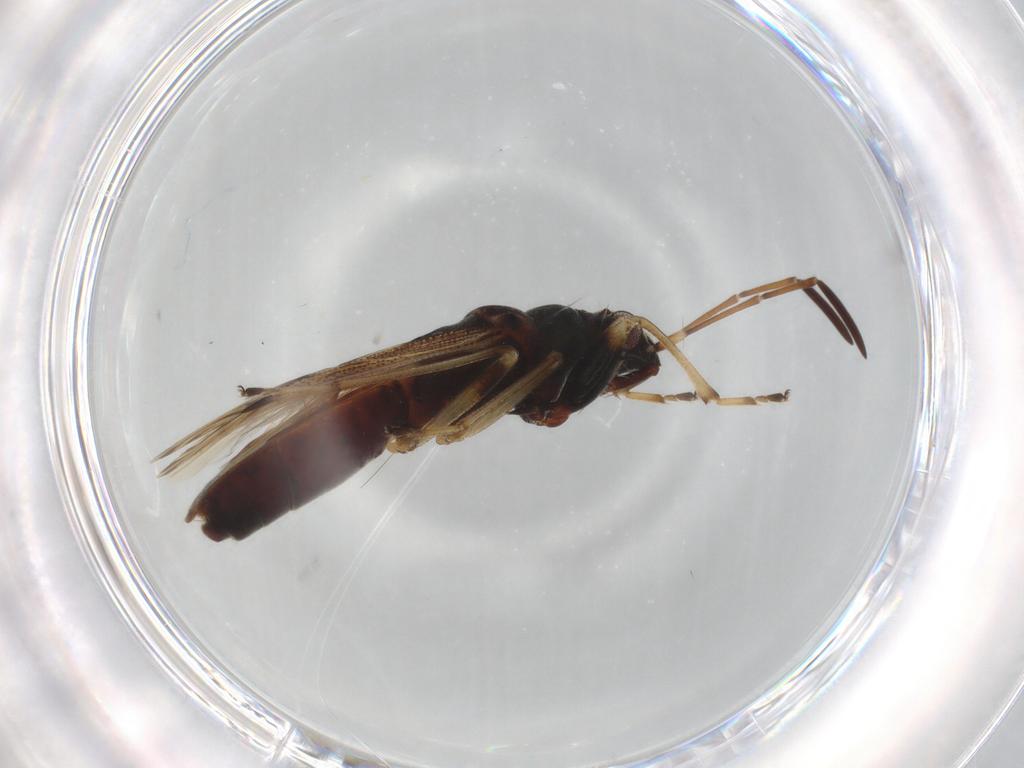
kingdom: Animalia
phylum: Arthropoda
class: Insecta
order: Hemiptera
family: Rhyparochromidae
